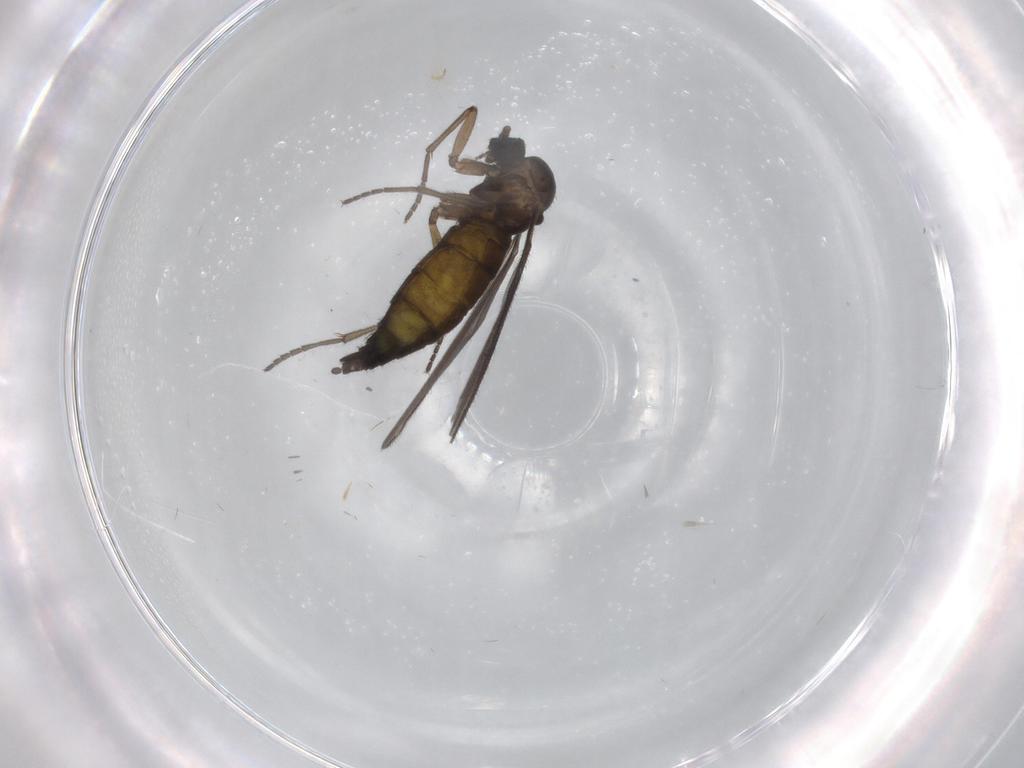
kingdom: Animalia
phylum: Arthropoda
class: Insecta
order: Diptera
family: Sciaridae
